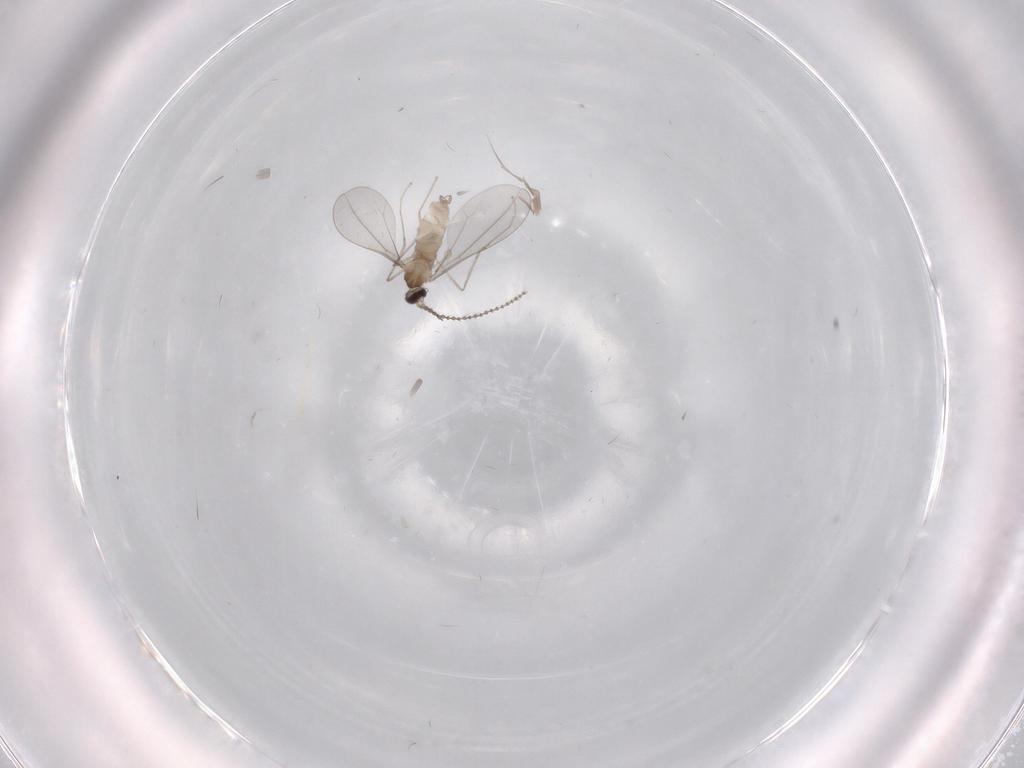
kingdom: Animalia
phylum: Arthropoda
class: Insecta
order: Diptera
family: Cecidomyiidae
